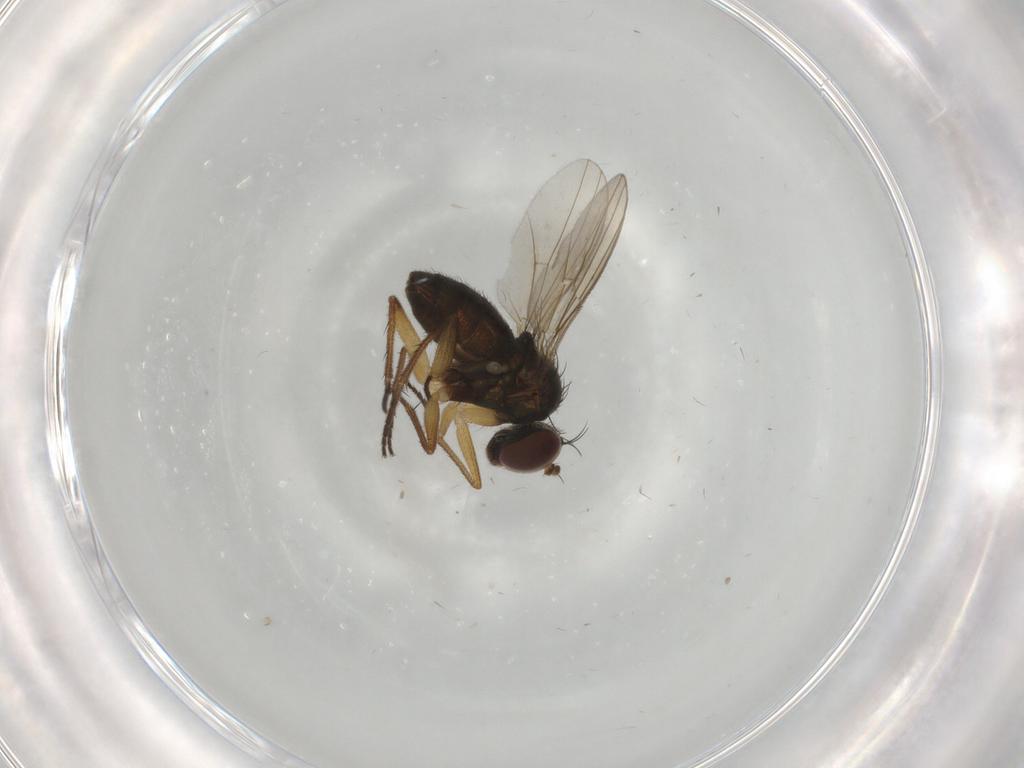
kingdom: Animalia
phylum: Arthropoda
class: Insecta
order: Diptera
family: Dolichopodidae
